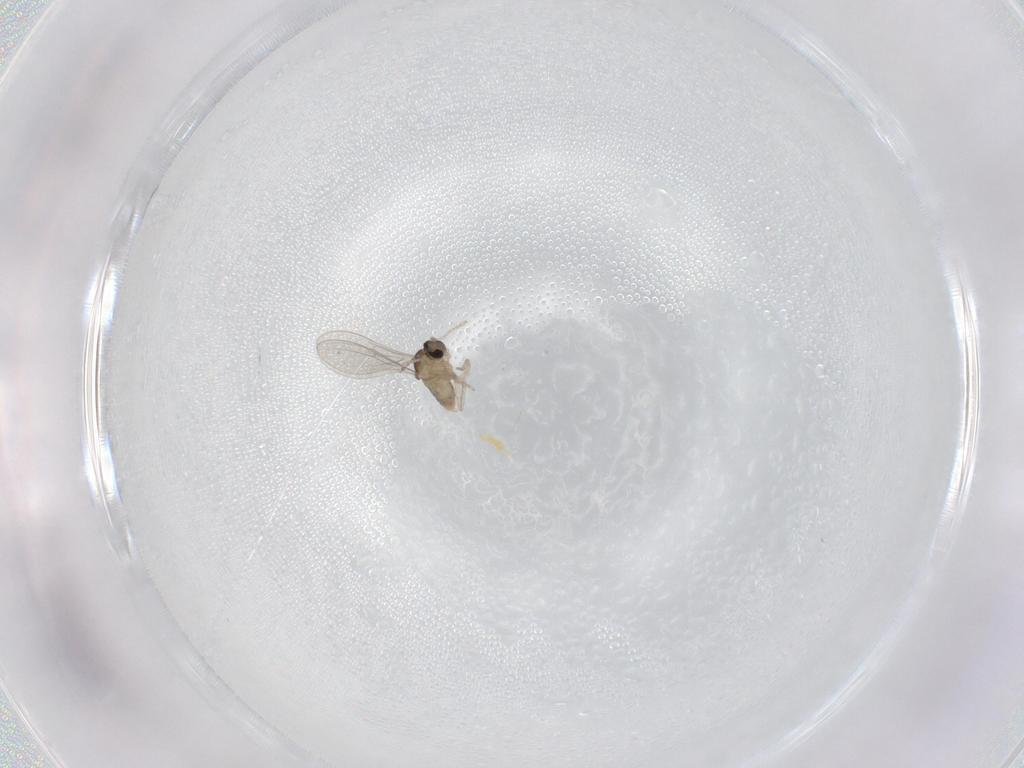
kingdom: Animalia
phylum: Arthropoda
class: Insecta
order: Diptera
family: Cecidomyiidae
